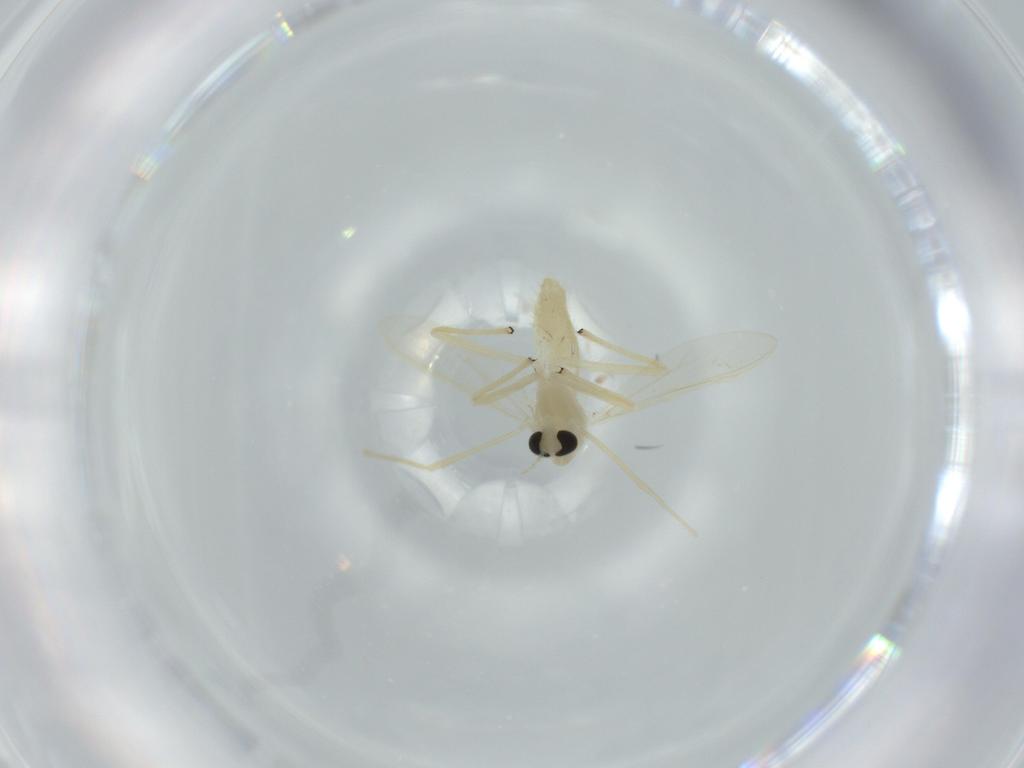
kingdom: Animalia
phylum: Arthropoda
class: Insecta
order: Diptera
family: Chironomidae
